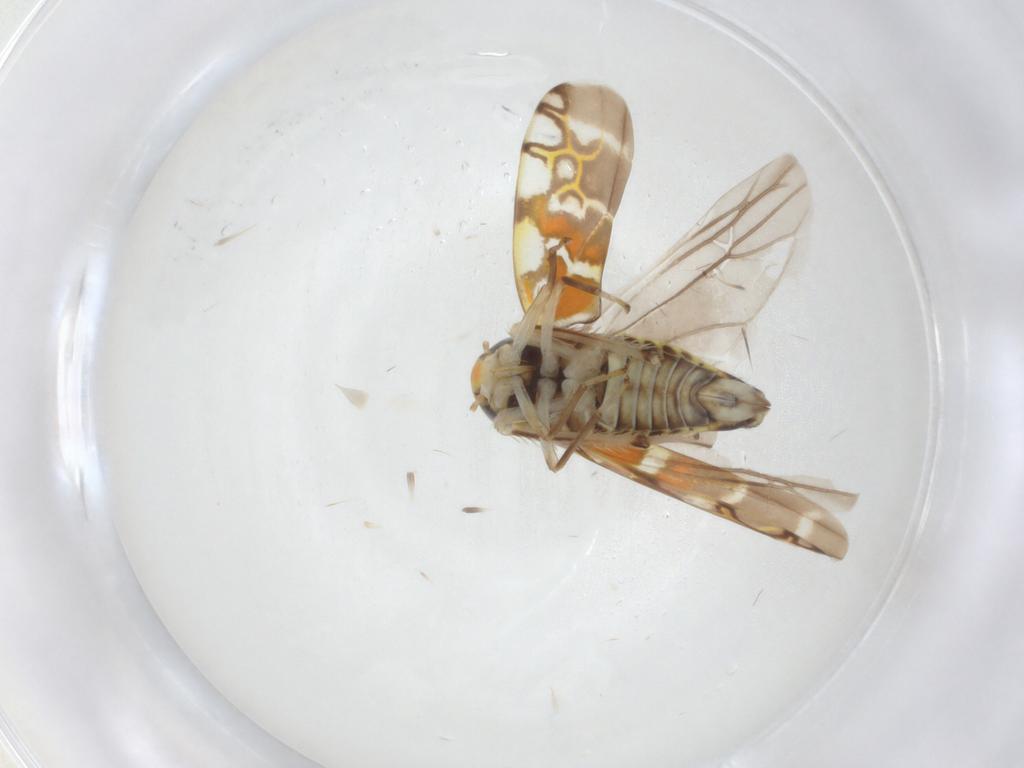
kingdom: Animalia
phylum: Arthropoda
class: Insecta
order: Hemiptera
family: Cicadellidae
